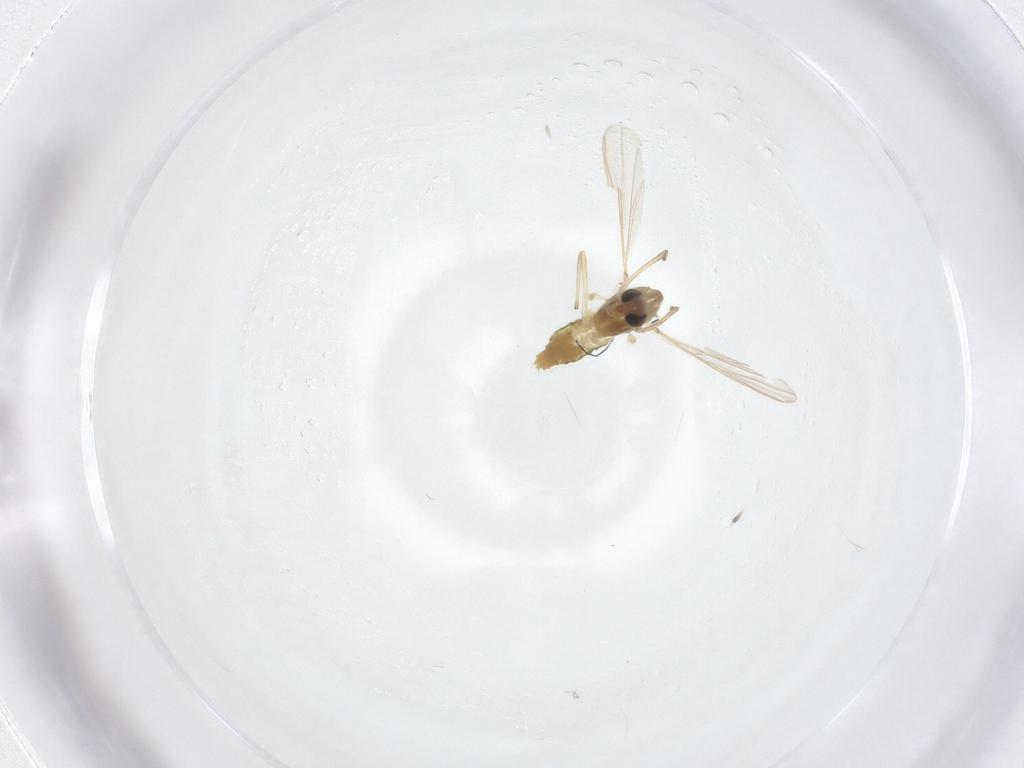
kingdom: Animalia
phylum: Arthropoda
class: Insecta
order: Diptera
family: Chironomidae
